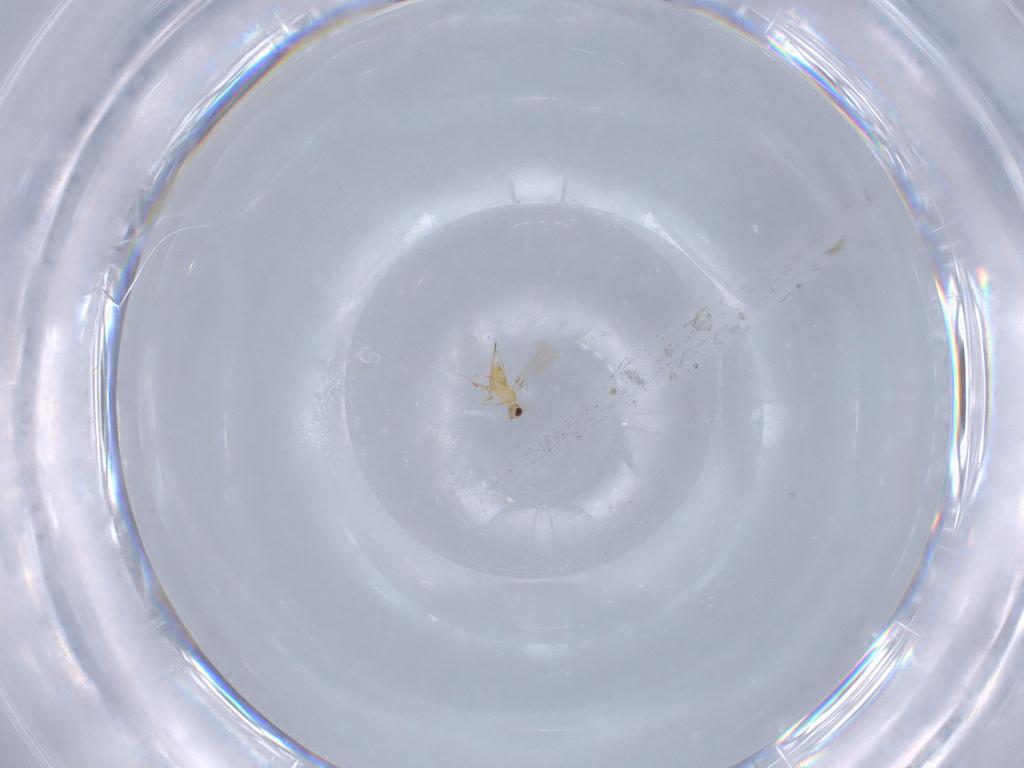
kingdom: Animalia
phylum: Arthropoda
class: Insecta
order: Hymenoptera
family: Mymaridae
